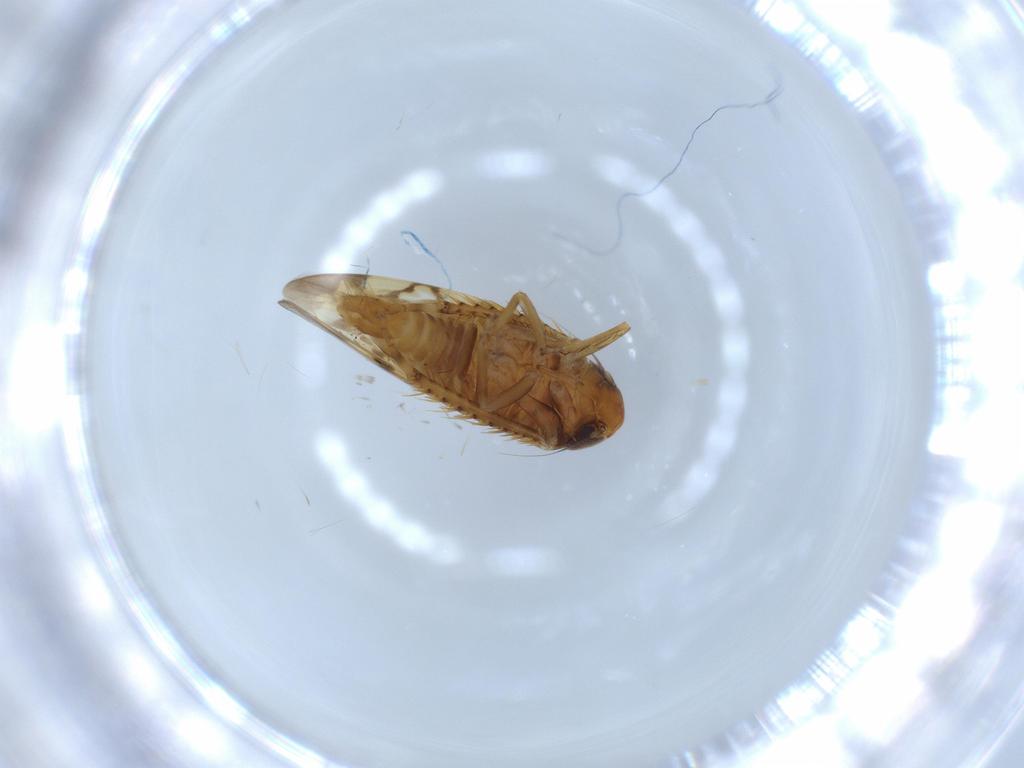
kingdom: Animalia
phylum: Arthropoda
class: Insecta
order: Hemiptera
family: Cicadellidae
